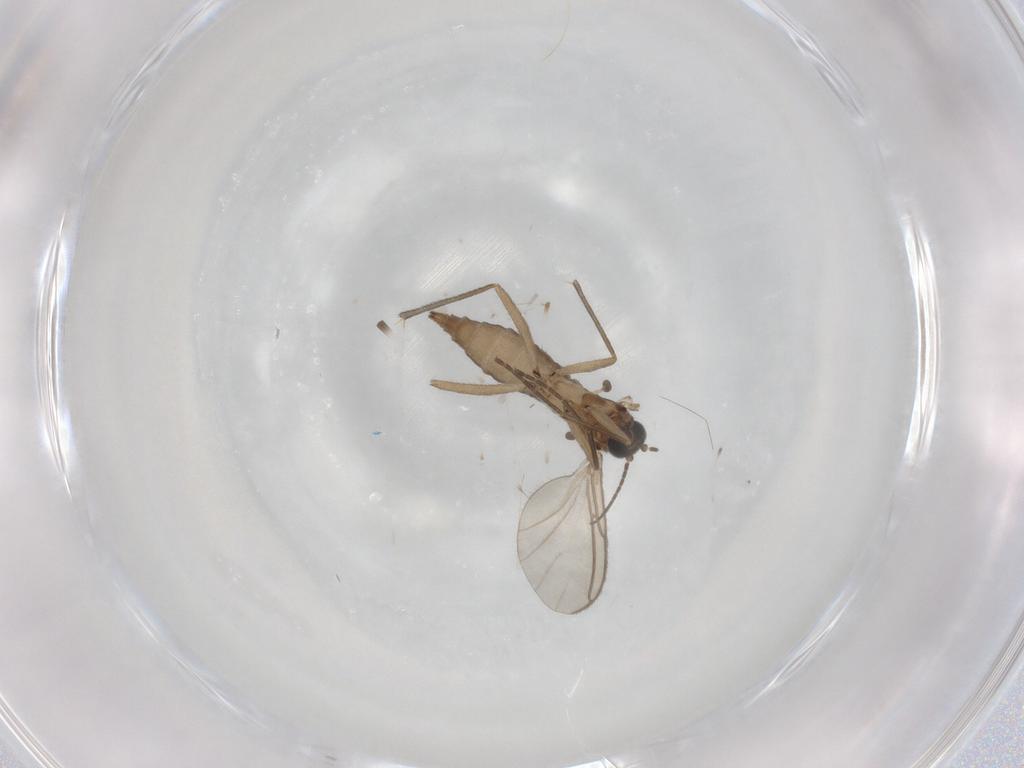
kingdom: Animalia
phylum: Arthropoda
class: Insecta
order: Diptera
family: Sciaridae
